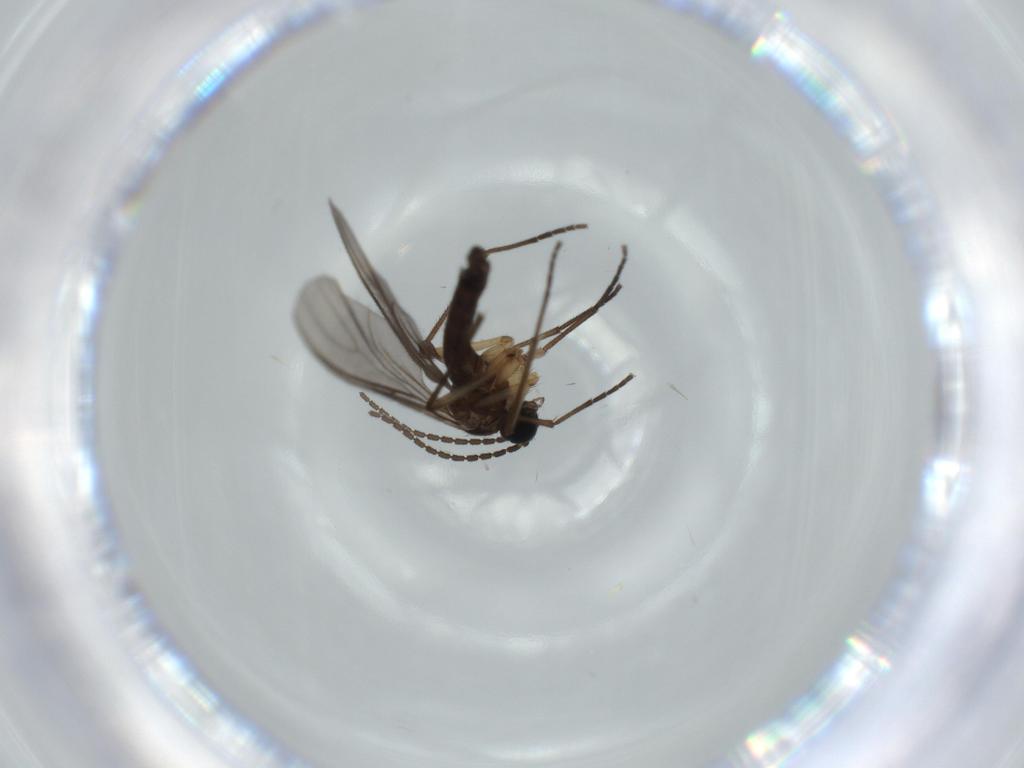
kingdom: Animalia
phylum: Arthropoda
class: Insecta
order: Diptera
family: Sciaridae
